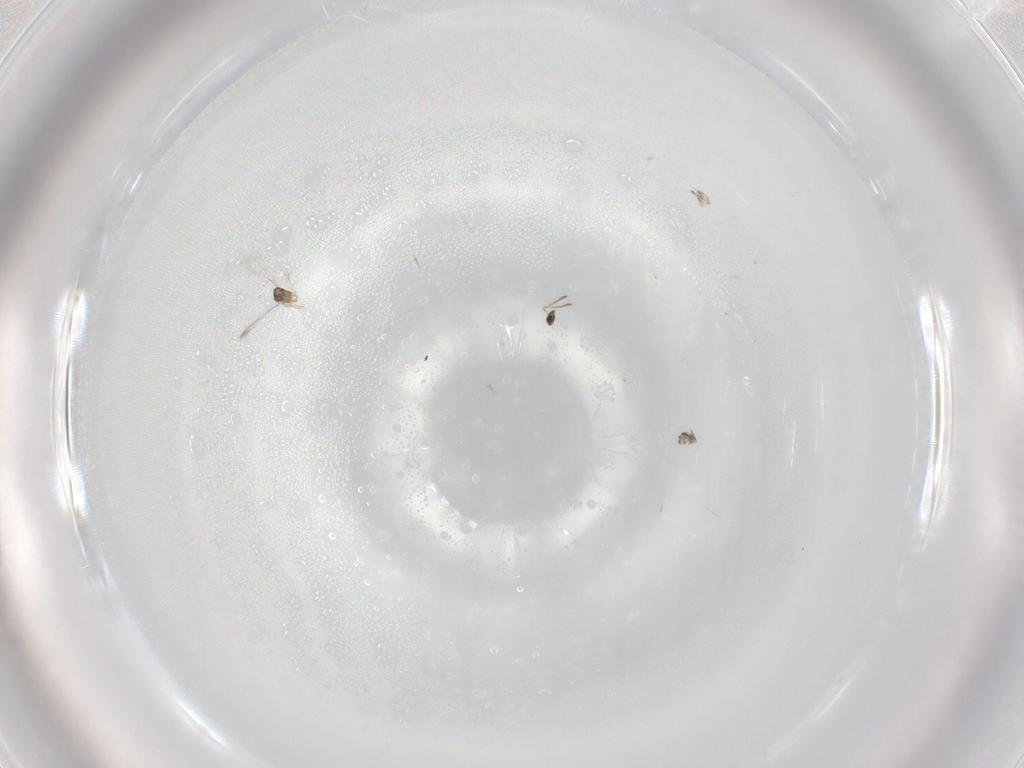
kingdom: Animalia
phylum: Arthropoda
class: Insecta
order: Hymenoptera
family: Mymaridae
